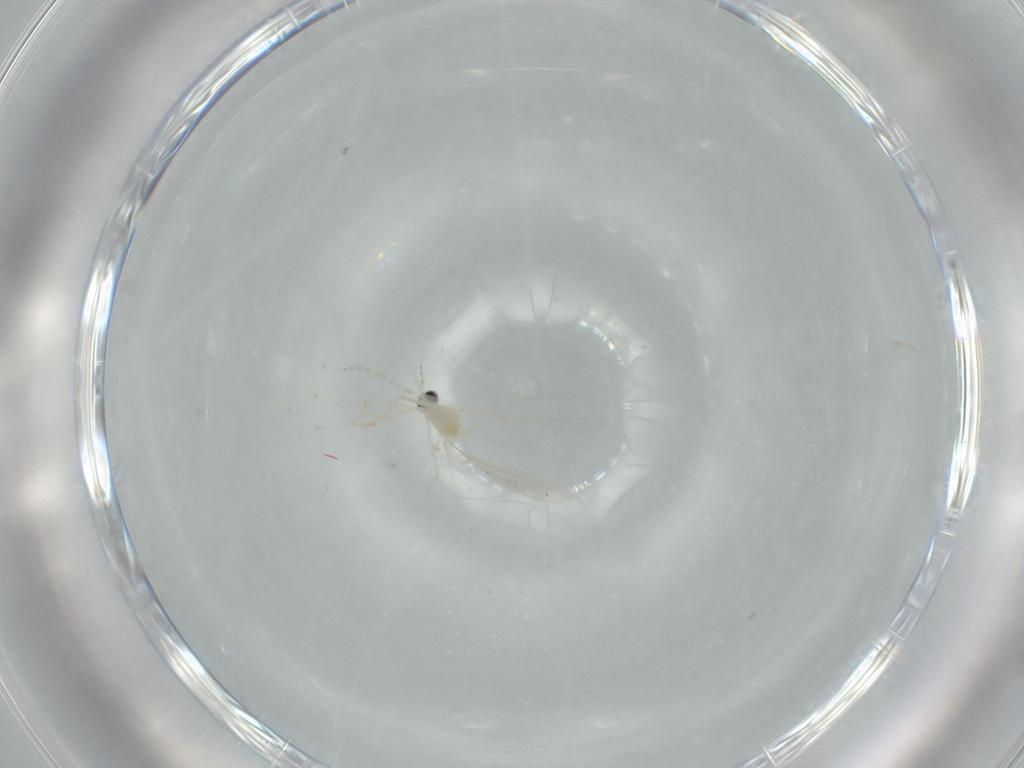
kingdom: Animalia
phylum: Arthropoda
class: Insecta
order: Diptera
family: Cecidomyiidae
